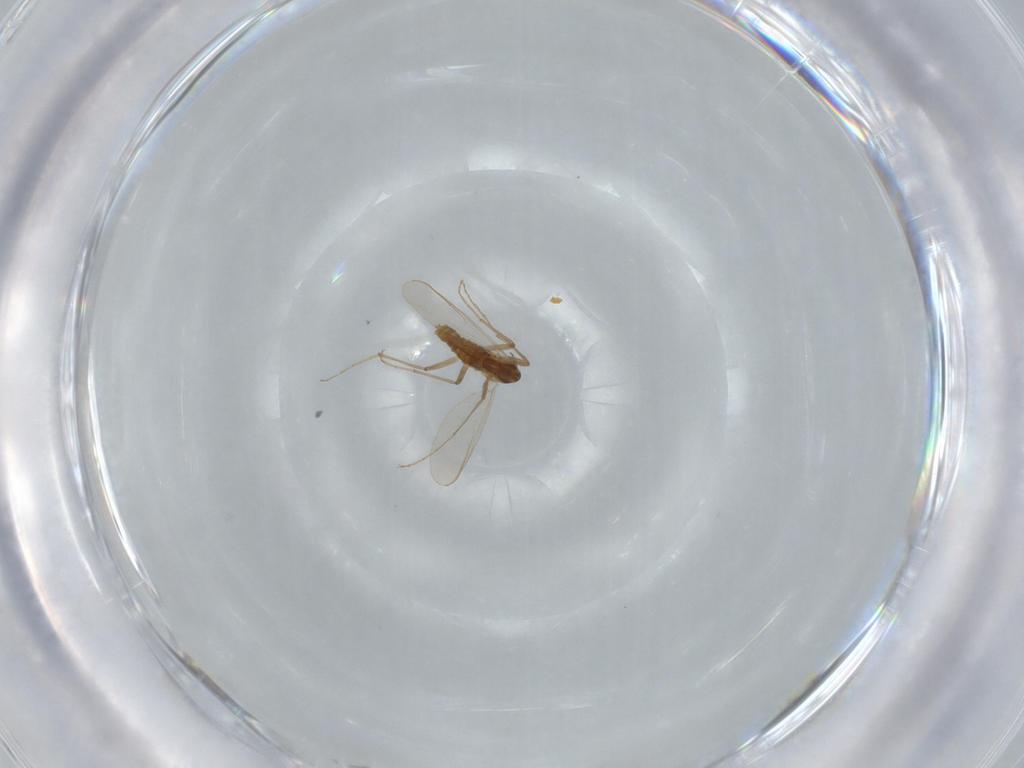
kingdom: Animalia
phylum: Arthropoda
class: Insecta
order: Diptera
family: Chironomidae
